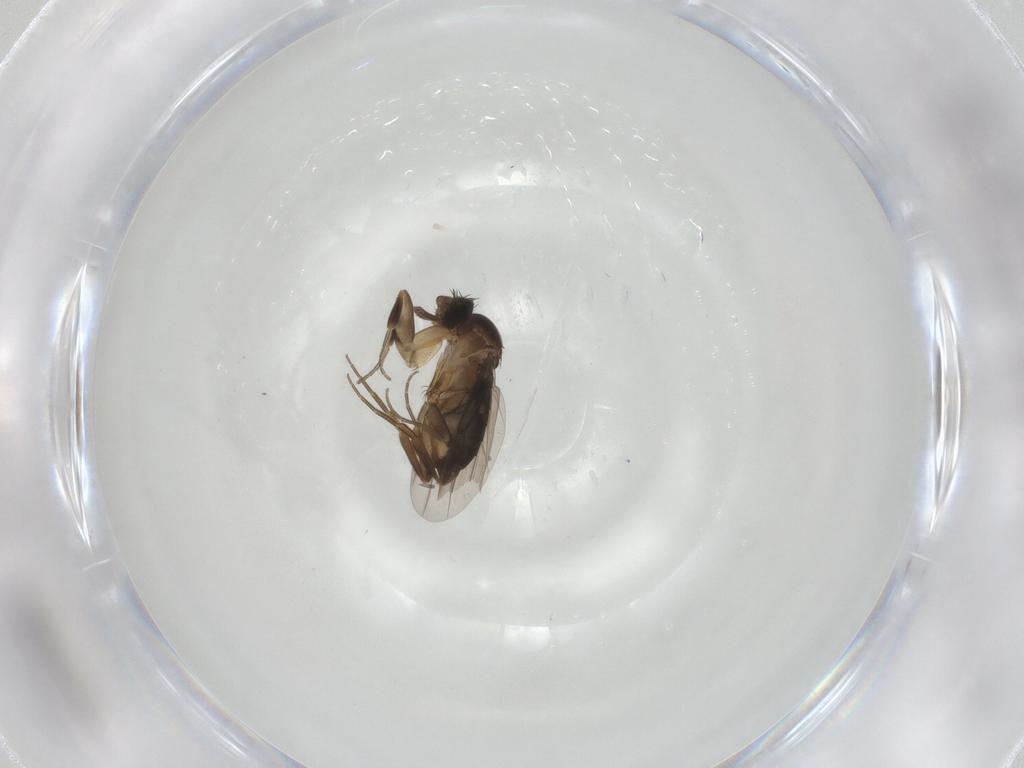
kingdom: Animalia
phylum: Arthropoda
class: Insecta
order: Diptera
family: Phoridae
